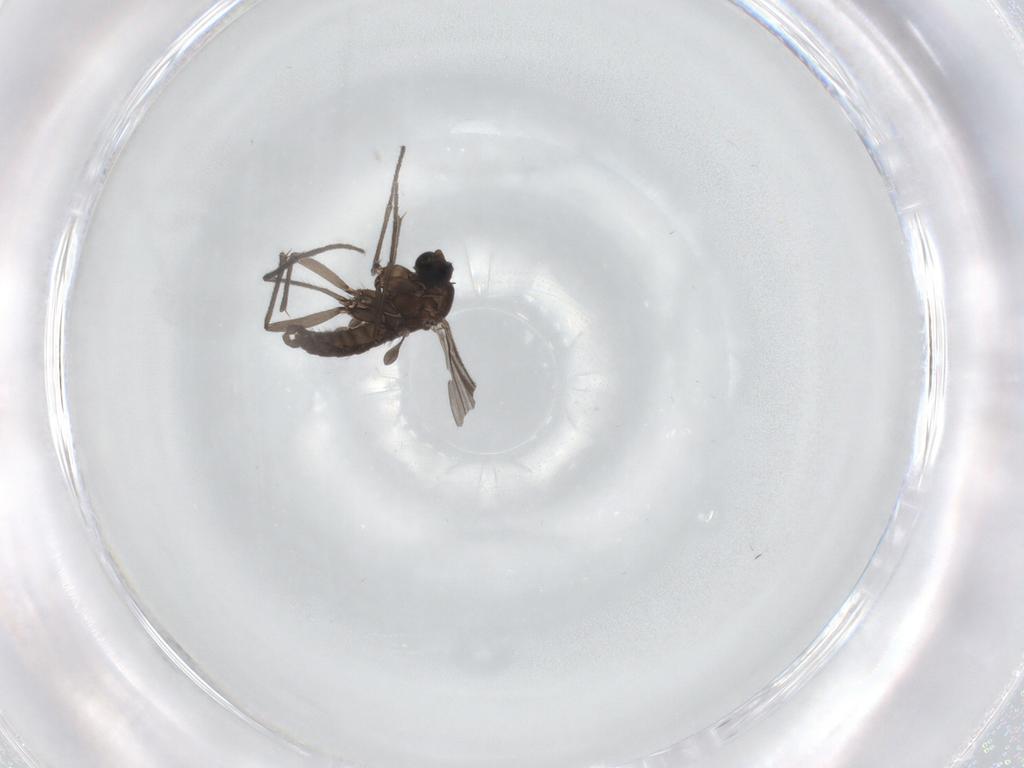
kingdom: Animalia
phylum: Arthropoda
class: Insecta
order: Diptera
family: Sciaridae
